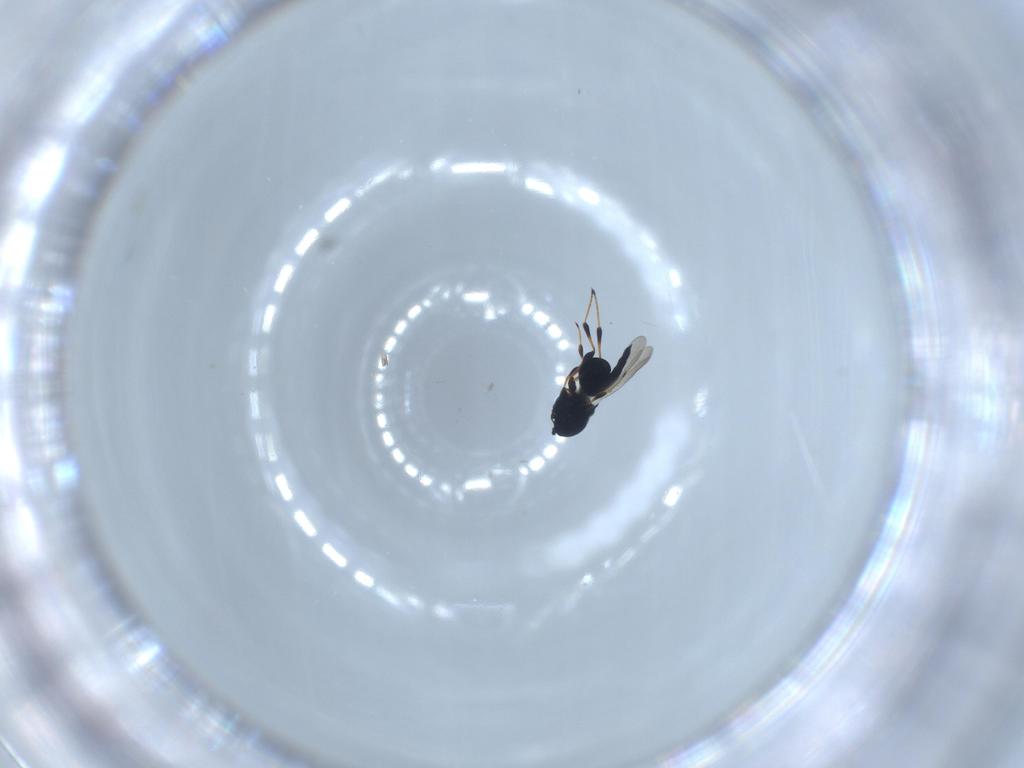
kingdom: Animalia
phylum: Arthropoda
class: Insecta
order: Hymenoptera
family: Platygastridae
